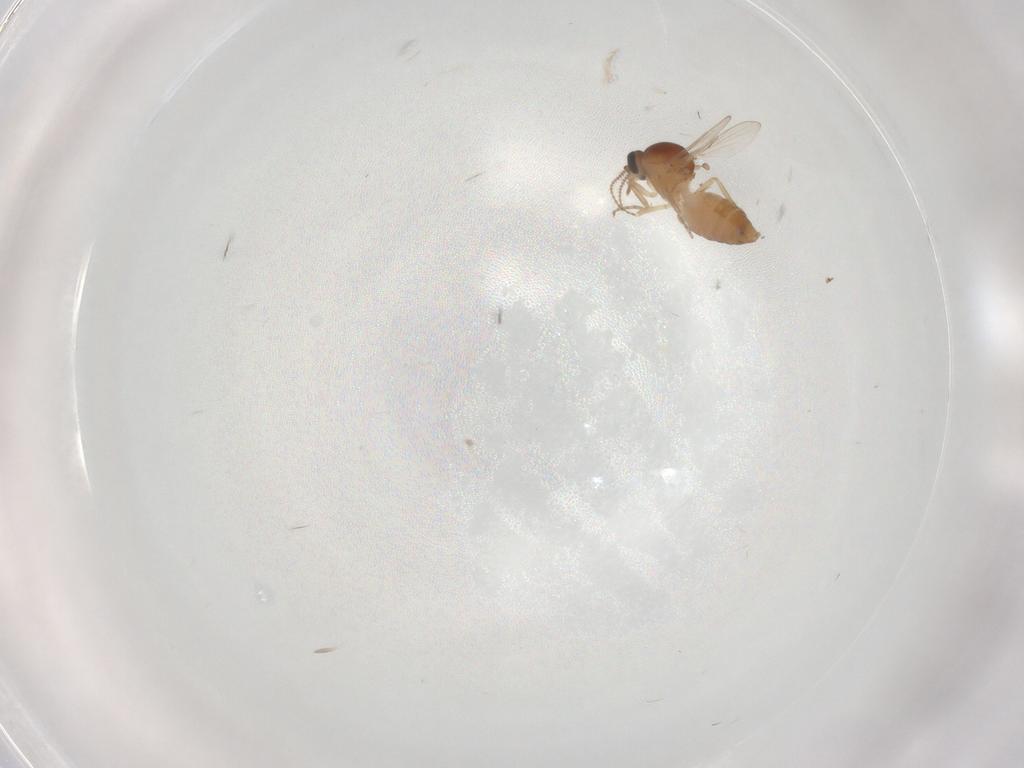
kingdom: Animalia
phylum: Arthropoda
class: Insecta
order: Diptera
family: Ceratopogonidae
